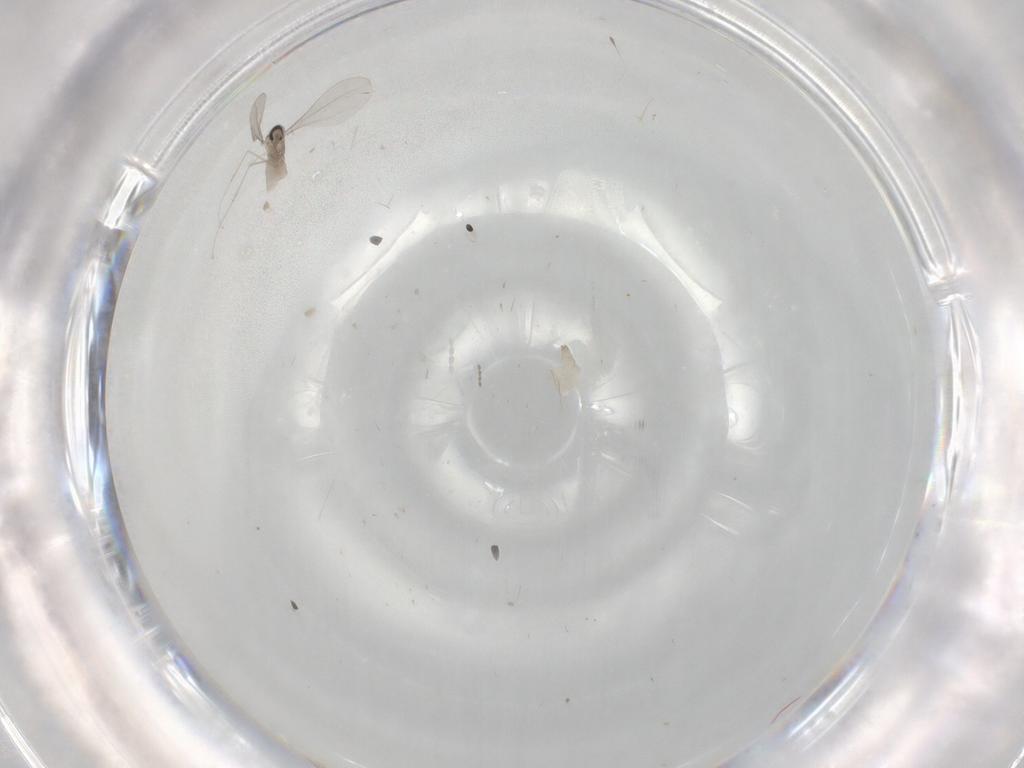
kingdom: Animalia
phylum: Arthropoda
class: Insecta
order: Diptera
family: Cecidomyiidae
